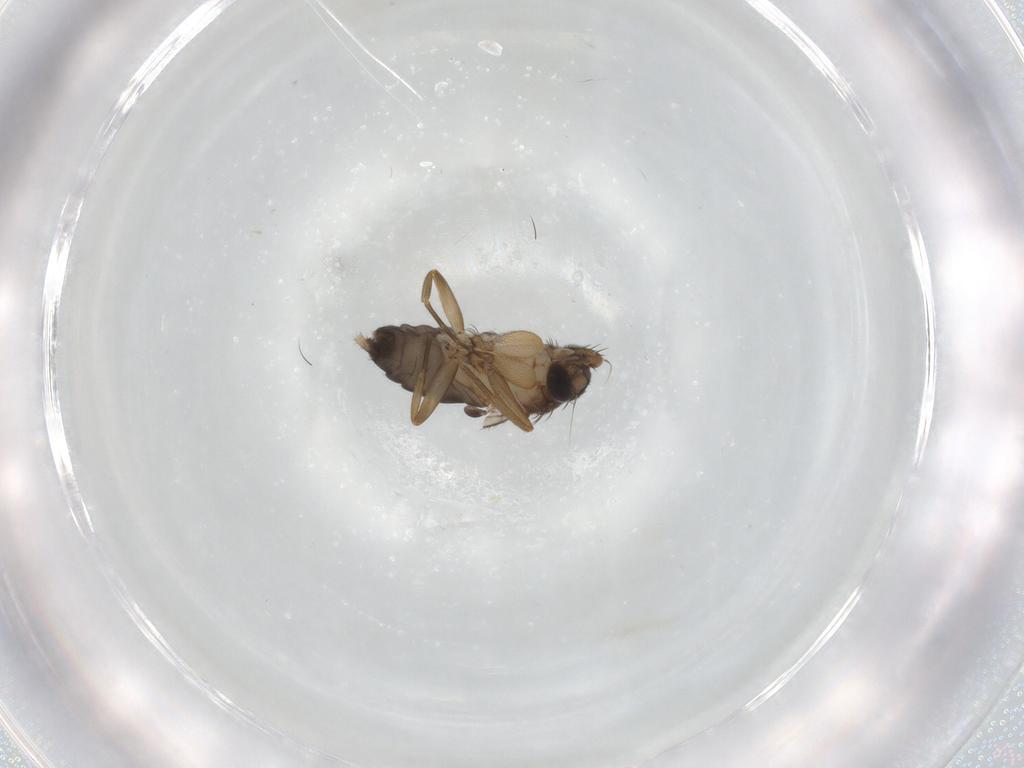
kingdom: Animalia
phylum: Arthropoda
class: Insecta
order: Diptera
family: Phoridae
